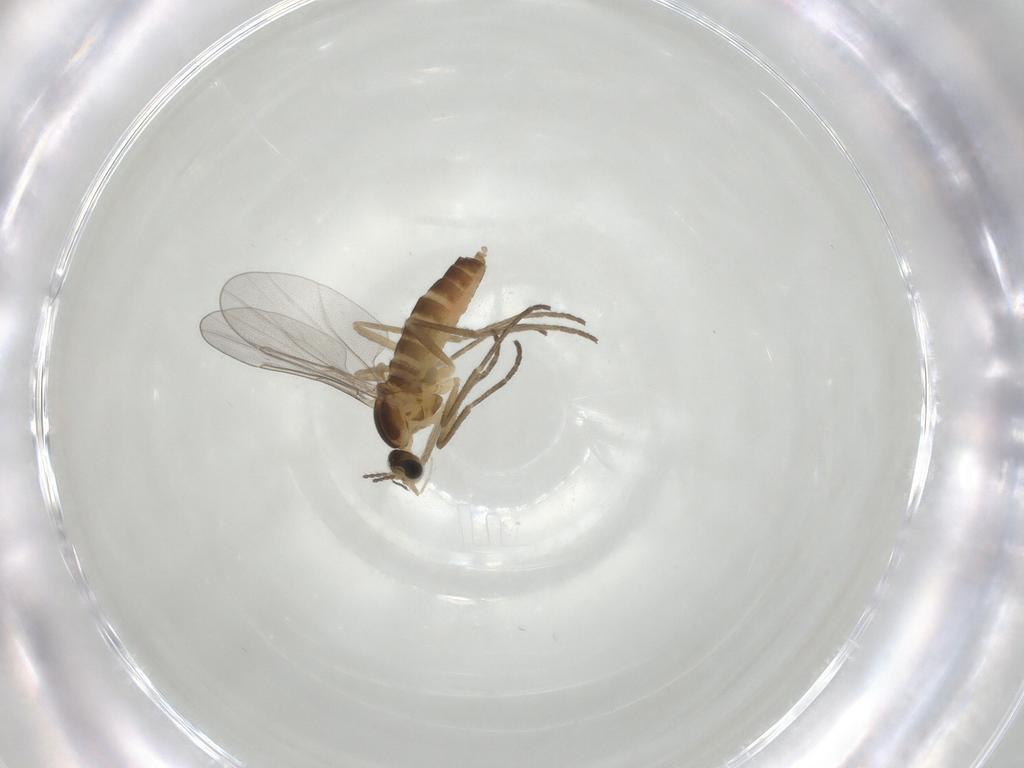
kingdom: Animalia
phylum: Arthropoda
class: Insecta
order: Diptera
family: Cecidomyiidae
